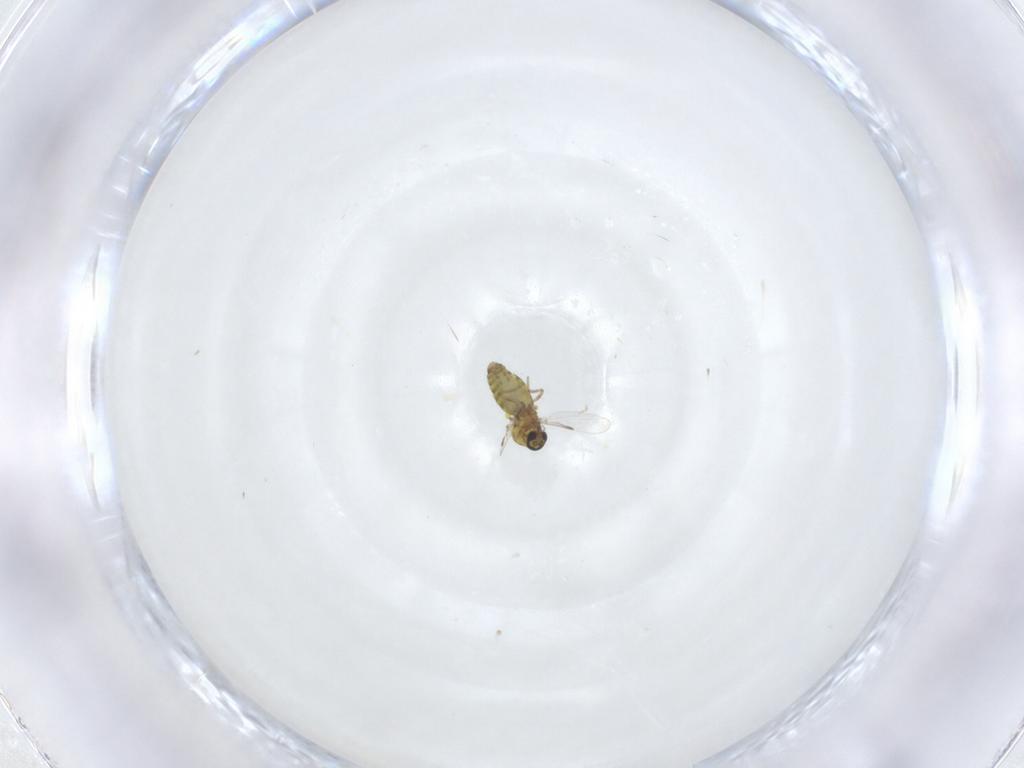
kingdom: Animalia
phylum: Arthropoda
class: Insecta
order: Diptera
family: Ceratopogonidae
